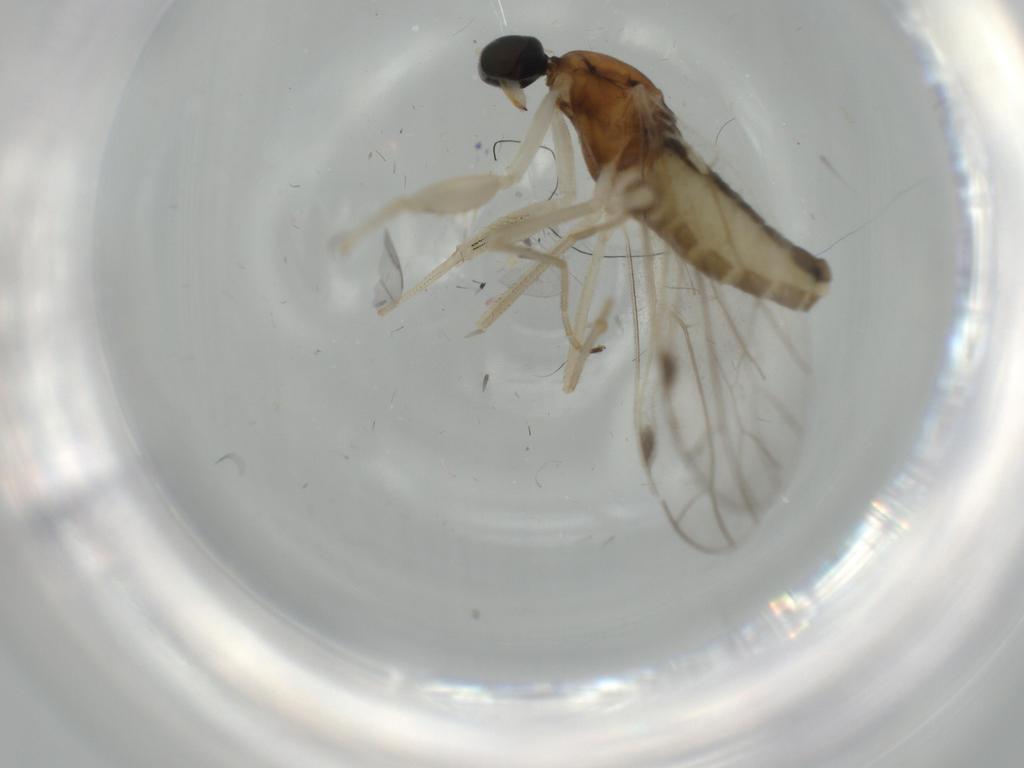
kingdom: Animalia
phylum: Arthropoda
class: Insecta
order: Diptera
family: Empididae
